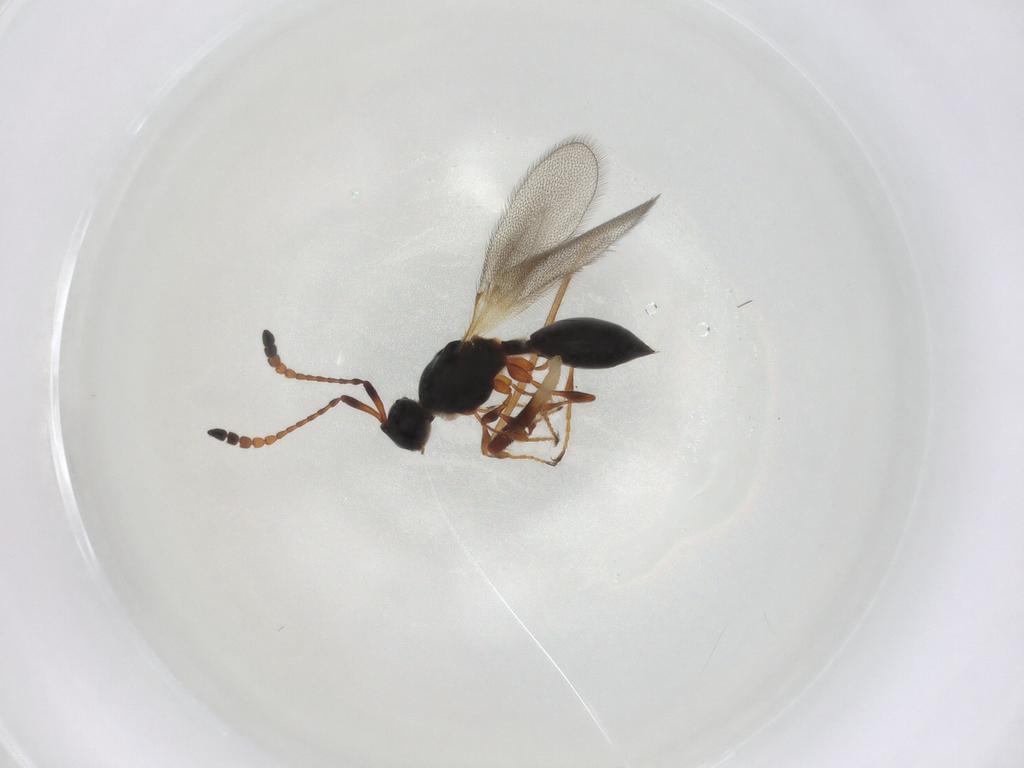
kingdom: Animalia
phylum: Arthropoda
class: Insecta
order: Hymenoptera
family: Diapriidae
